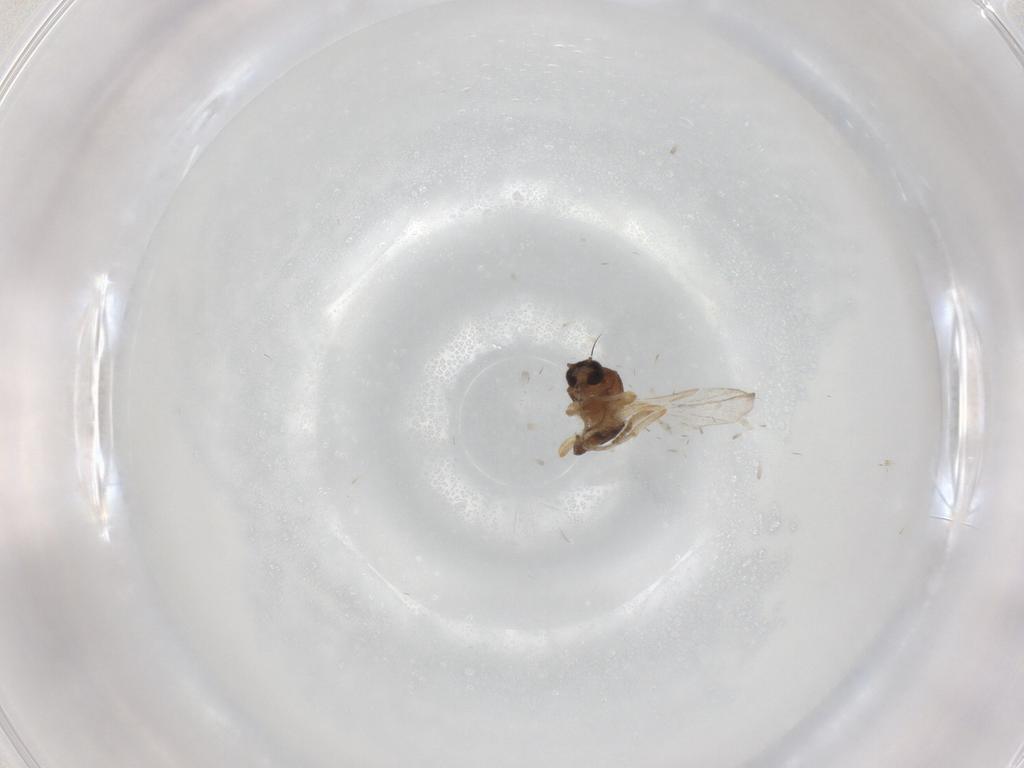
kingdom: Animalia
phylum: Arthropoda
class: Insecta
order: Diptera
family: Ceratopogonidae
